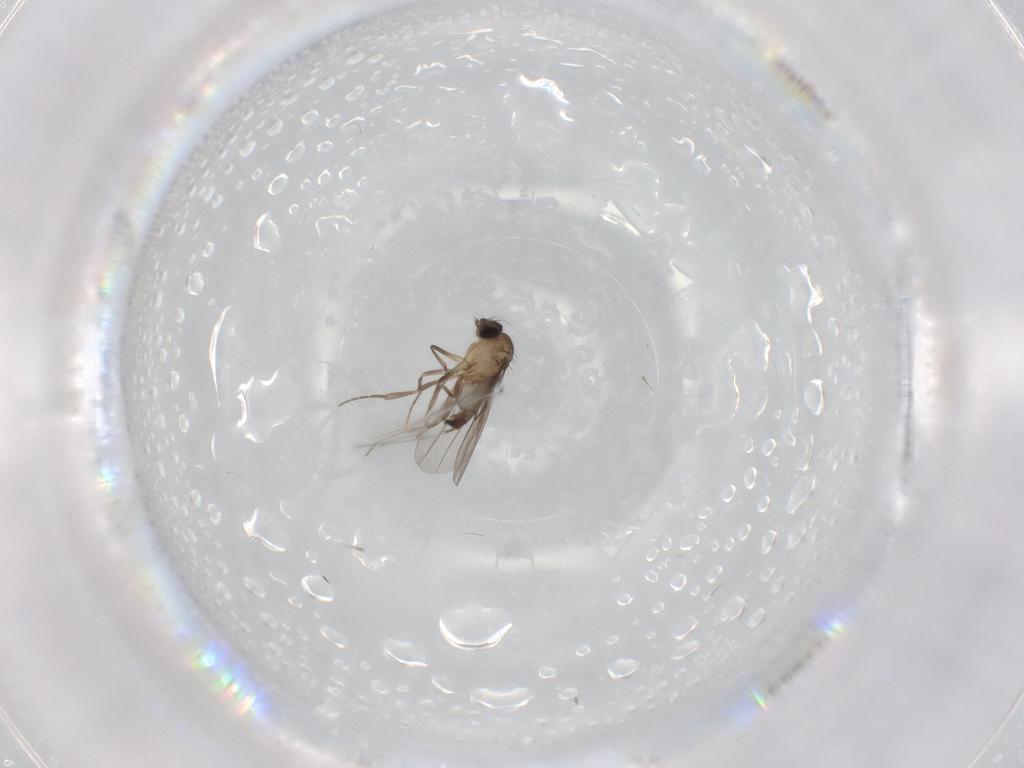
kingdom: Animalia
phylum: Arthropoda
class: Insecta
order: Diptera
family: Phoridae
